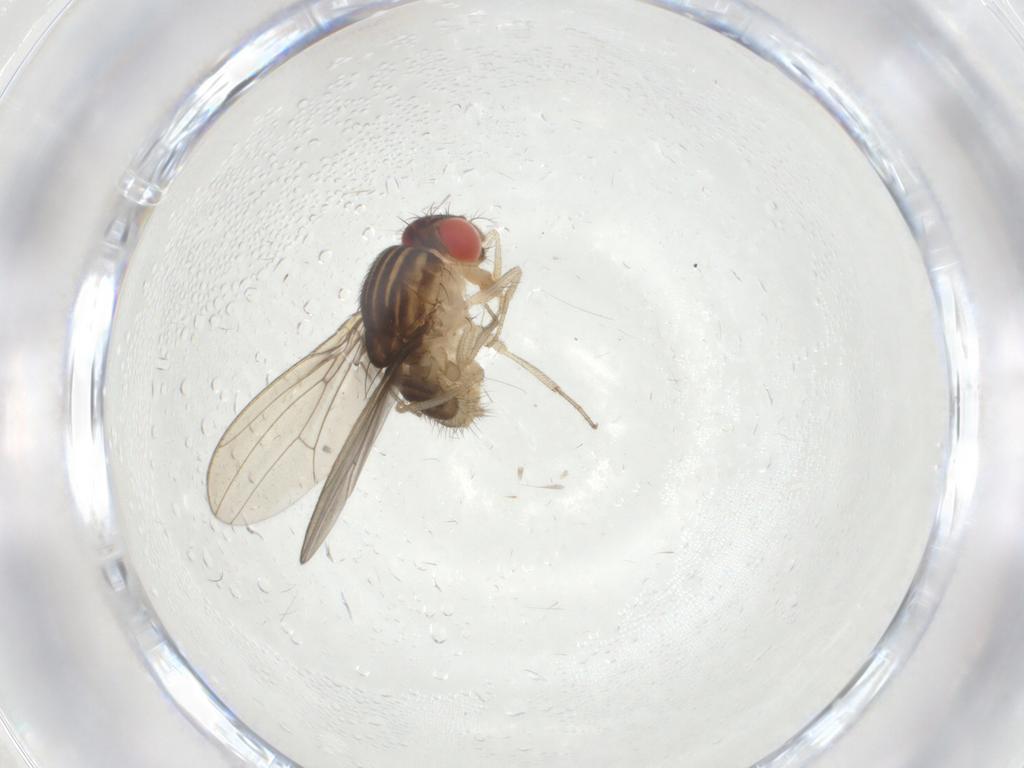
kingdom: Animalia
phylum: Arthropoda
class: Insecta
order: Diptera
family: Drosophilidae
